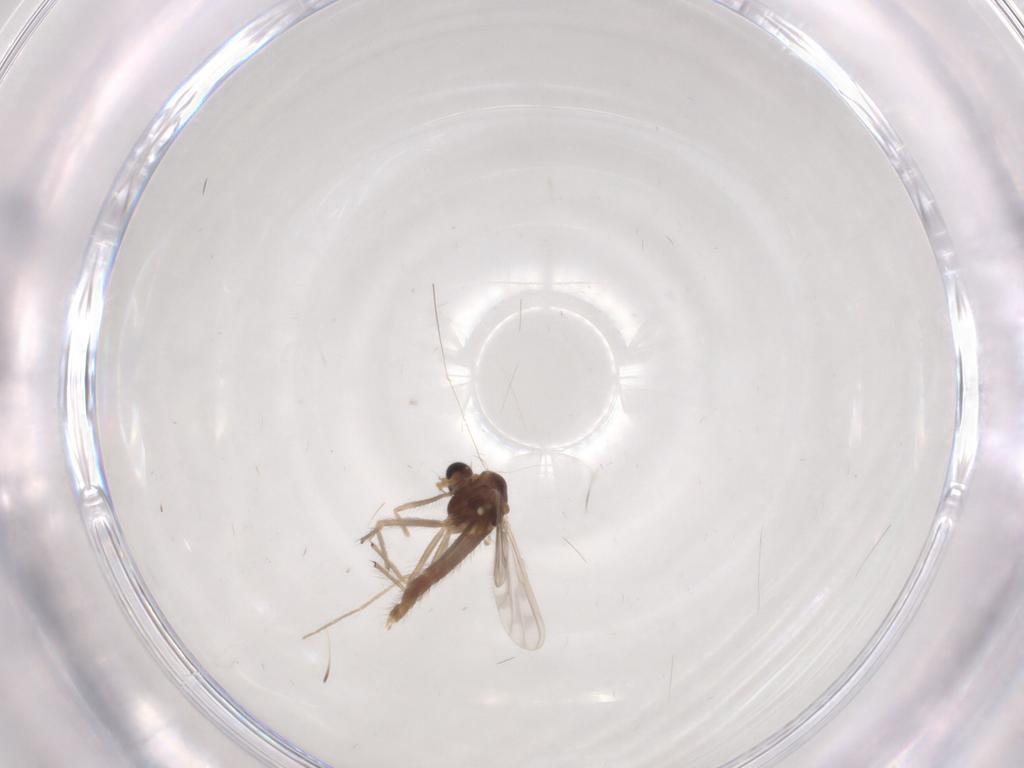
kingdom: Animalia
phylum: Arthropoda
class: Insecta
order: Diptera
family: Chironomidae
